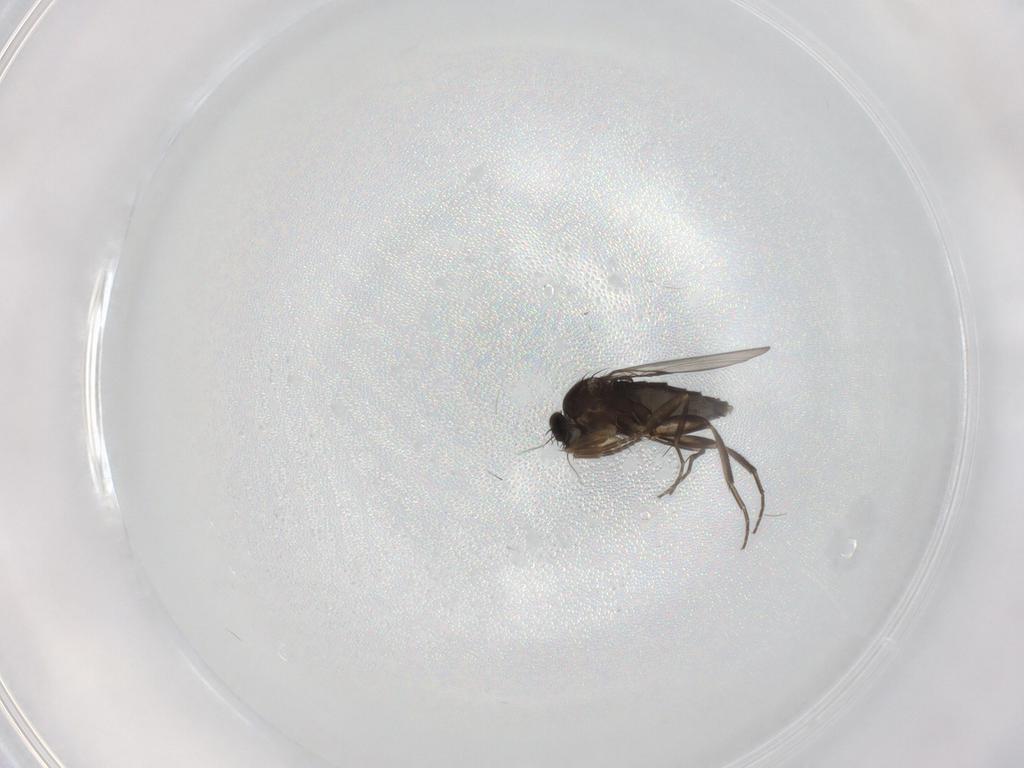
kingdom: Animalia
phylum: Arthropoda
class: Insecta
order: Diptera
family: Phoridae
